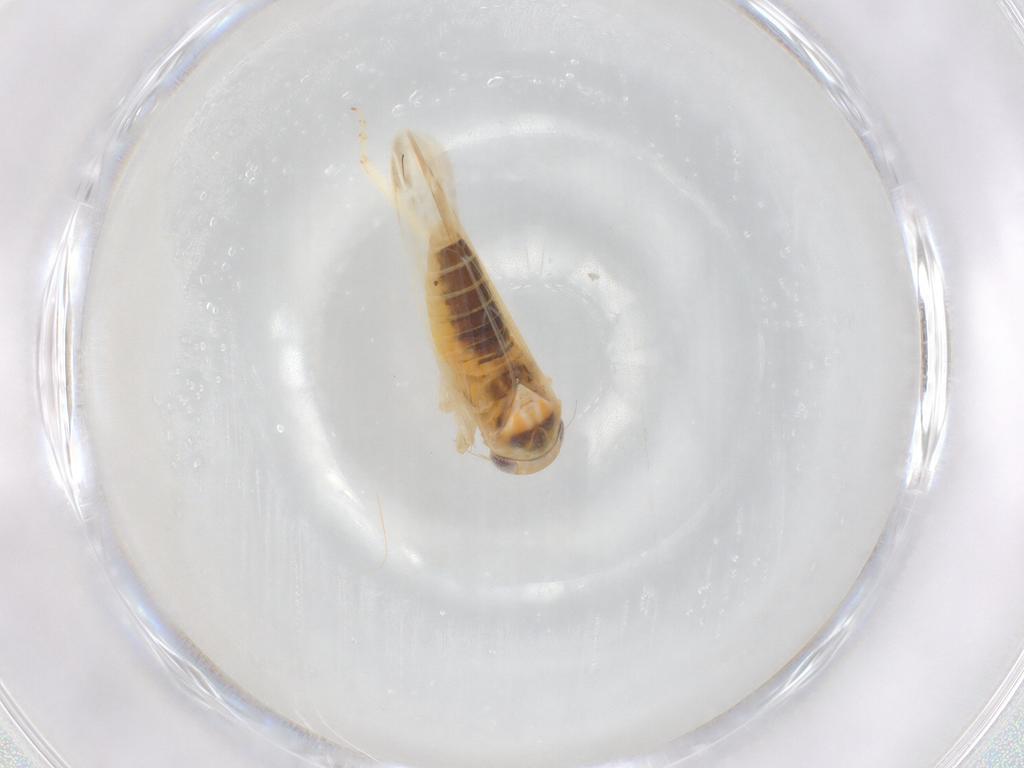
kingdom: Animalia
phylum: Arthropoda
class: Insecta
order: Hemiptera
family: Cicadellidae
